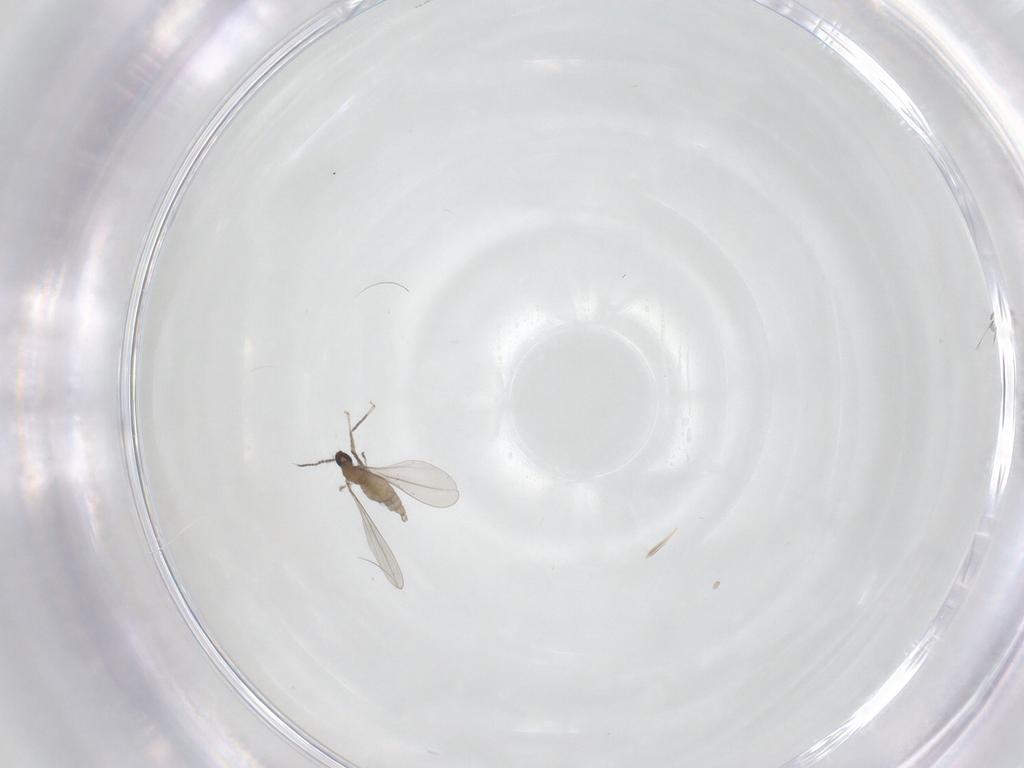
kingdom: Animalia
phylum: Arthropoda
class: Insecta
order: Diptera
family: Ceratopogonidae
